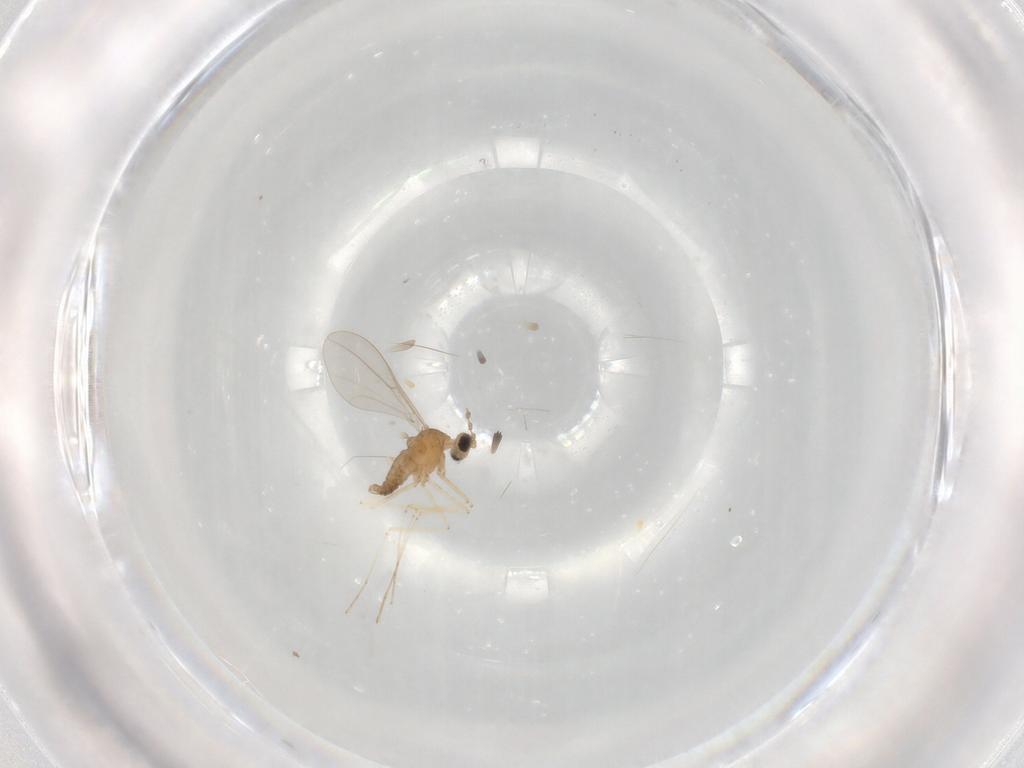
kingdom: Animalia
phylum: Arthropoda
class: Insecta
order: Diptera
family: Cecidomyiidae
